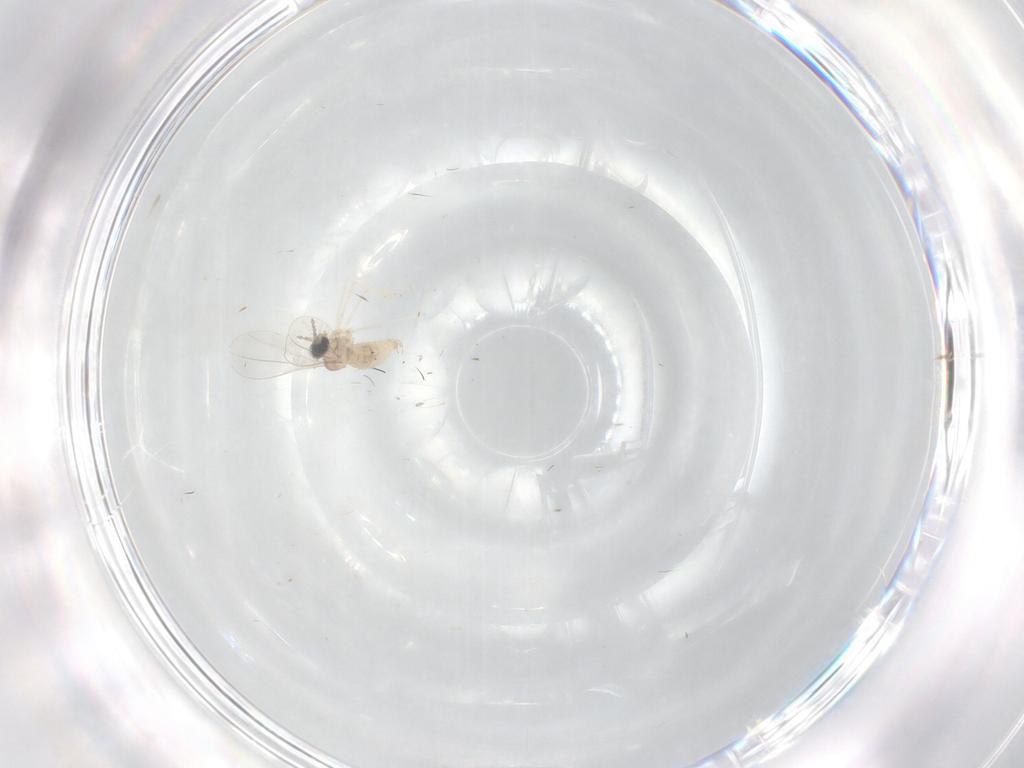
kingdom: Animalia
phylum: Arthropoda
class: Insecta
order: Diptera
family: Cecidomyiidae
